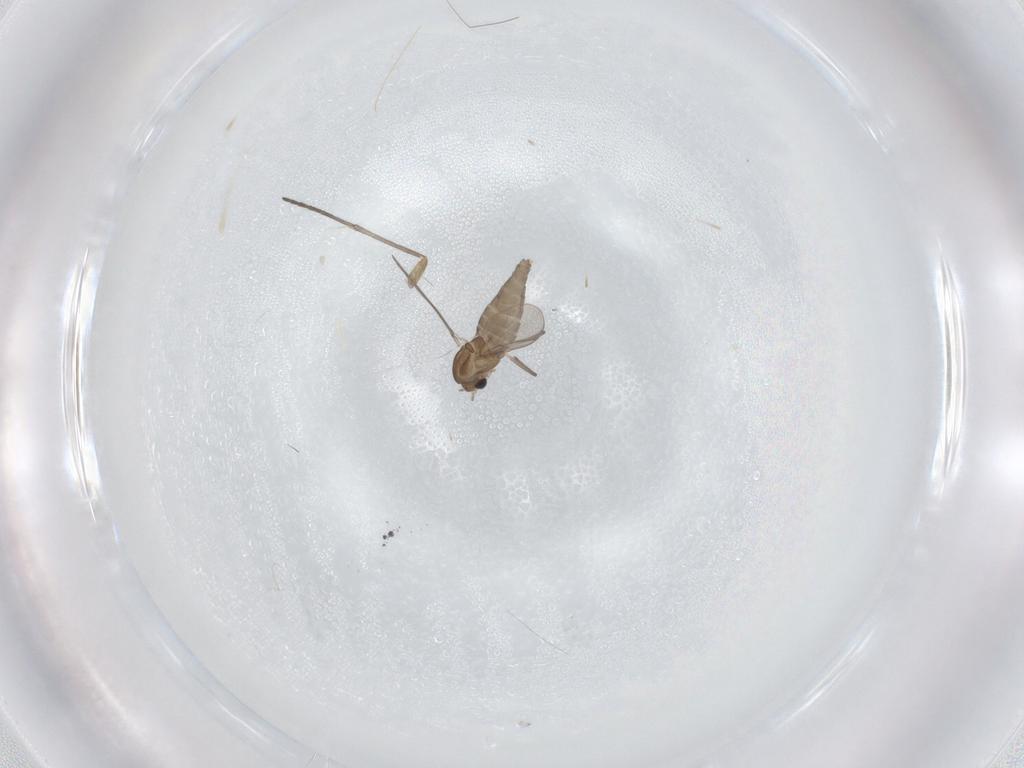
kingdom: Animalia
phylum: Arthropoda
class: Insecta
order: Diptera
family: Chironomidae
